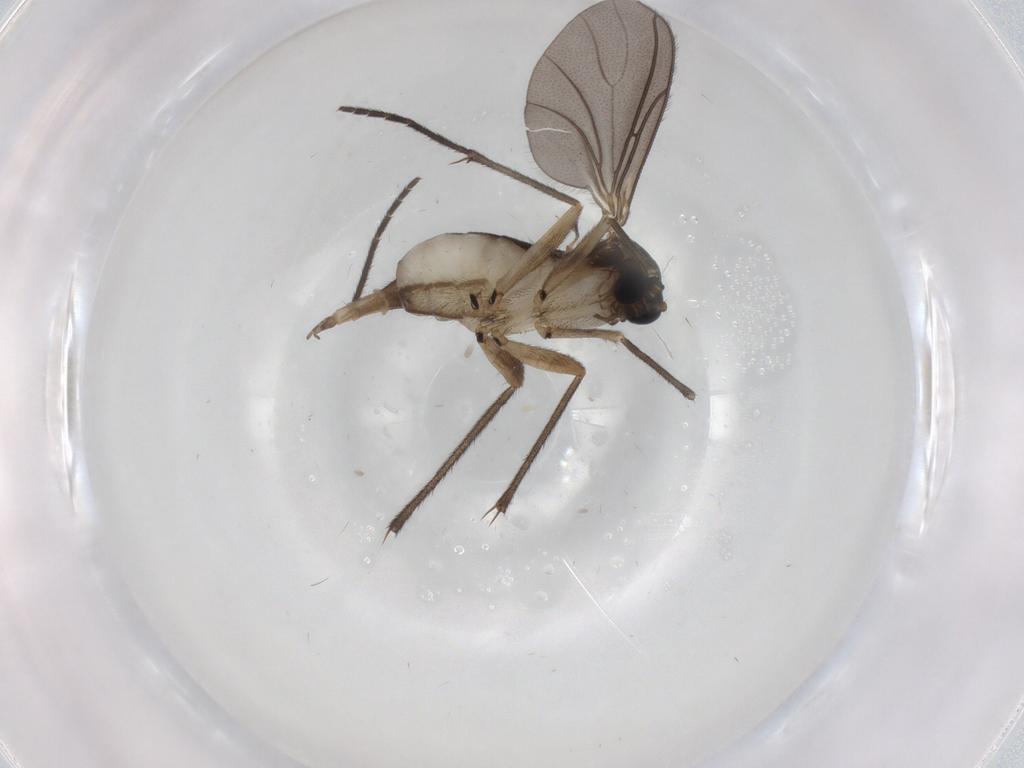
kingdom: Animalia
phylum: Arthropoda
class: Insecta
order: Diptera
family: Sciaridae
